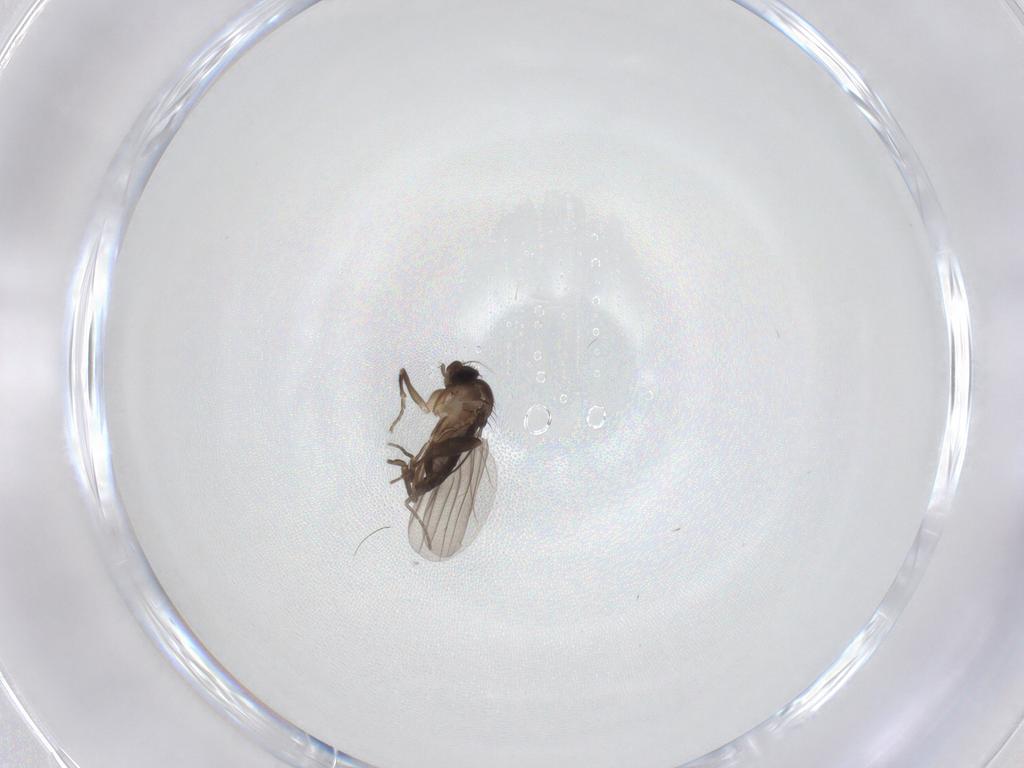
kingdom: Animalia
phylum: Arthropoda
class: Insecta
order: Diptera
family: Phoridae
